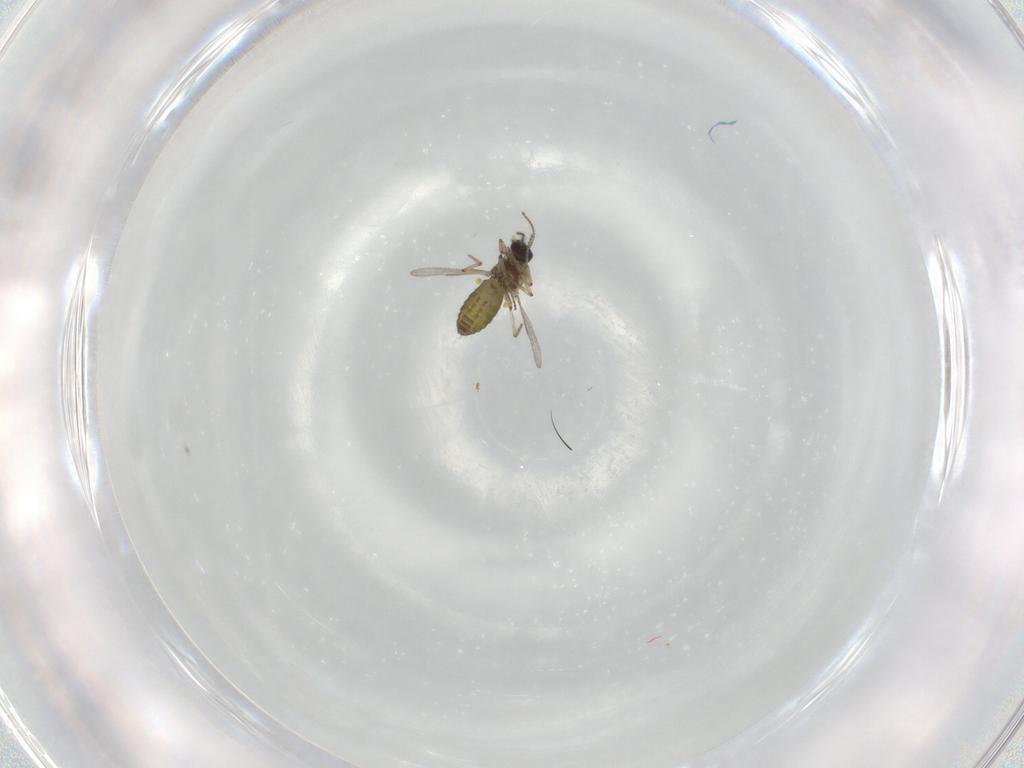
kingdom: Animalia
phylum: Arthropoda
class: Insecta
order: Diptera
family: Ceratopogonidae
